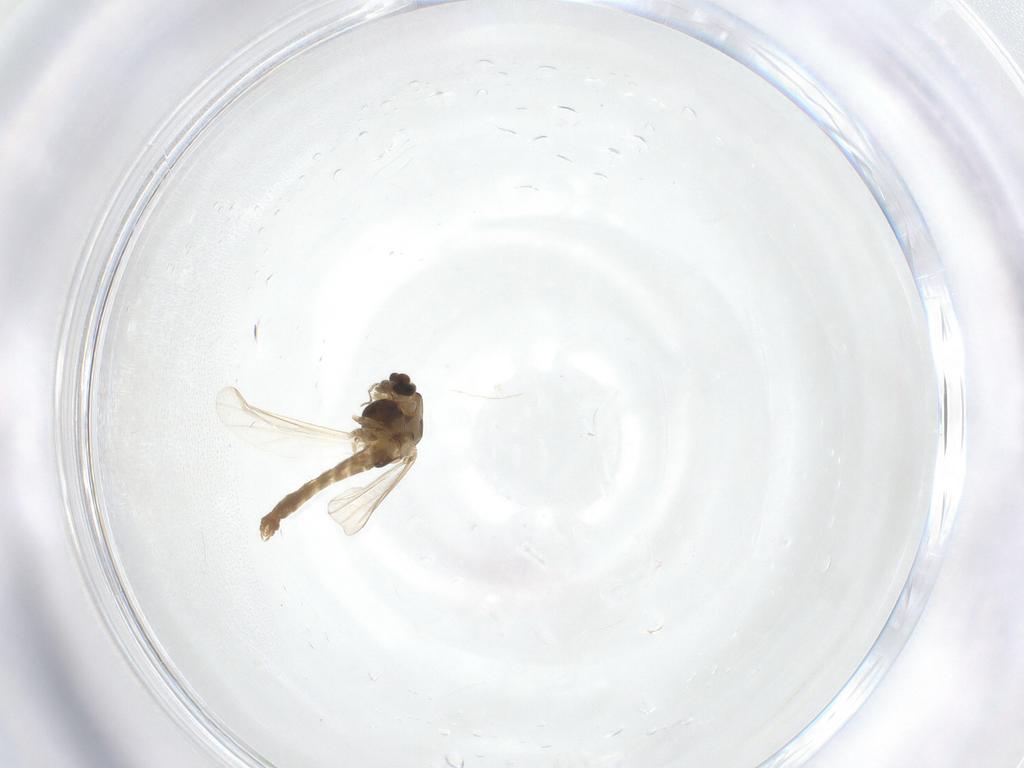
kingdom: Animalia
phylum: Arthropoda
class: Insecta
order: Diptera
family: Chironomidae
